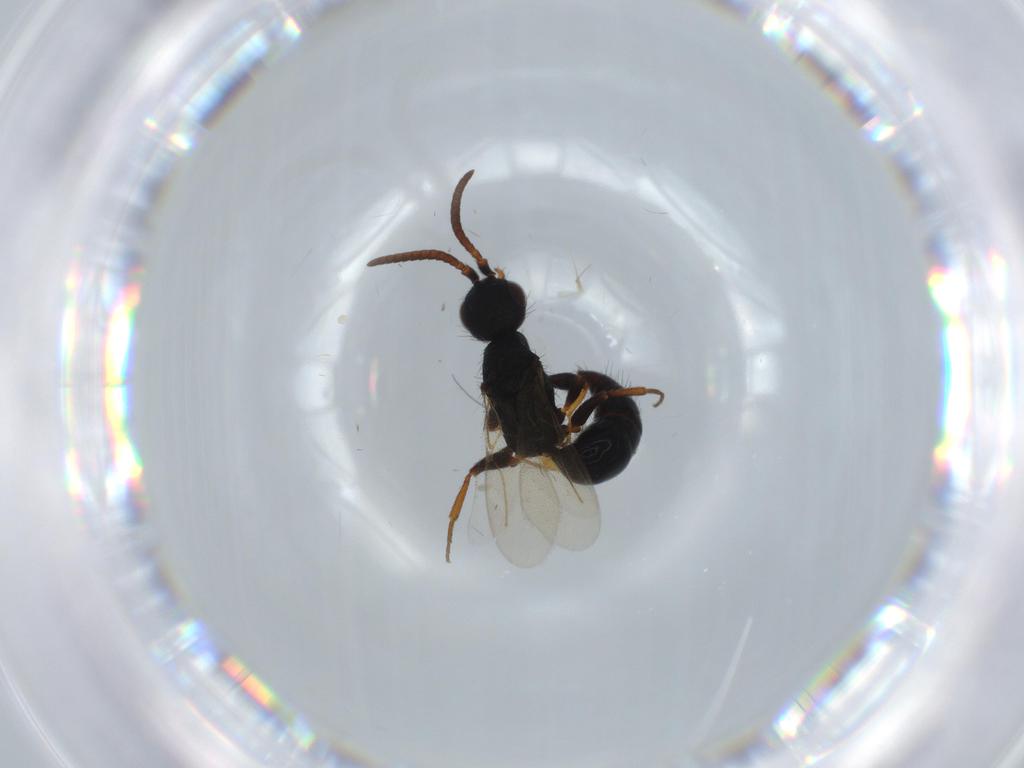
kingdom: Animalia
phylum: Arthropoda
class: Insecta
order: Hymenoptera
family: Bethylidae
